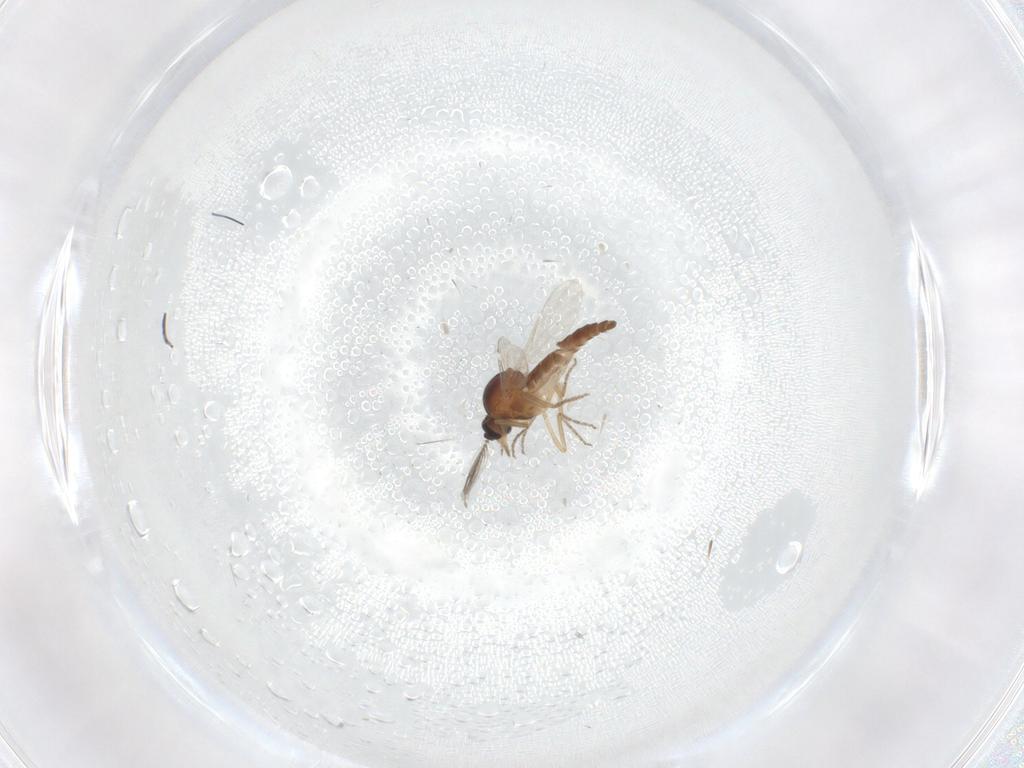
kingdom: Animalia
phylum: Arthropoda
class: Insecta
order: Diptera
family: Ceratopogonidae
